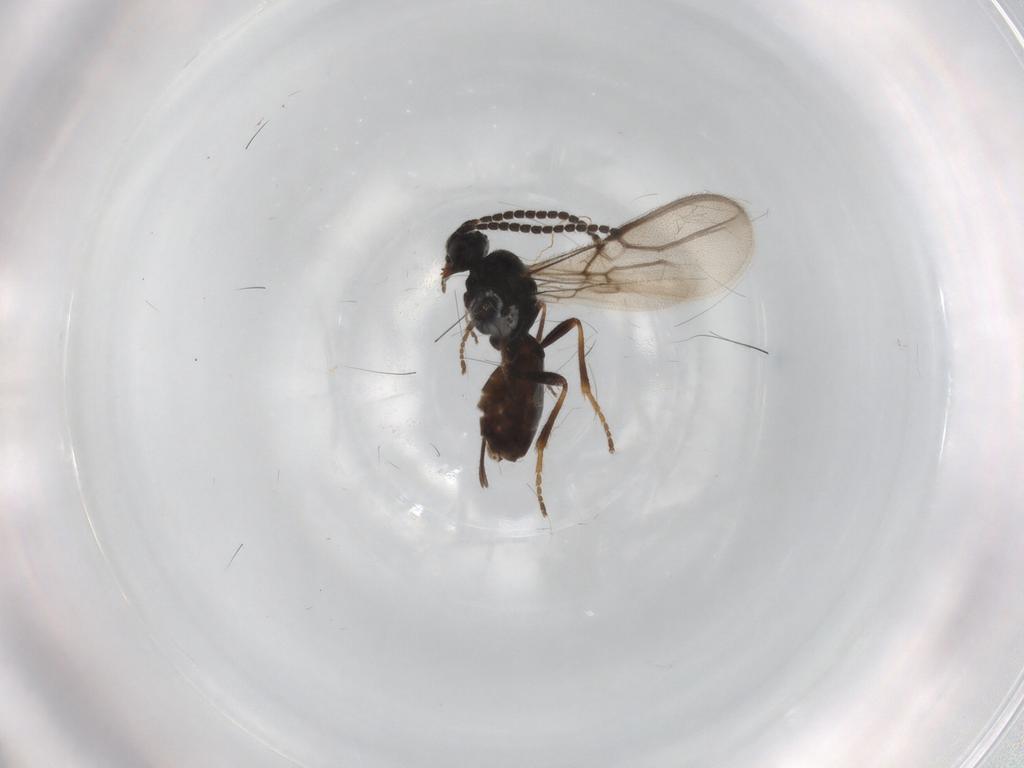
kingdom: Animalia
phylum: Arthropoda
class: Insecta
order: Hymenoptera
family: Braconidae
